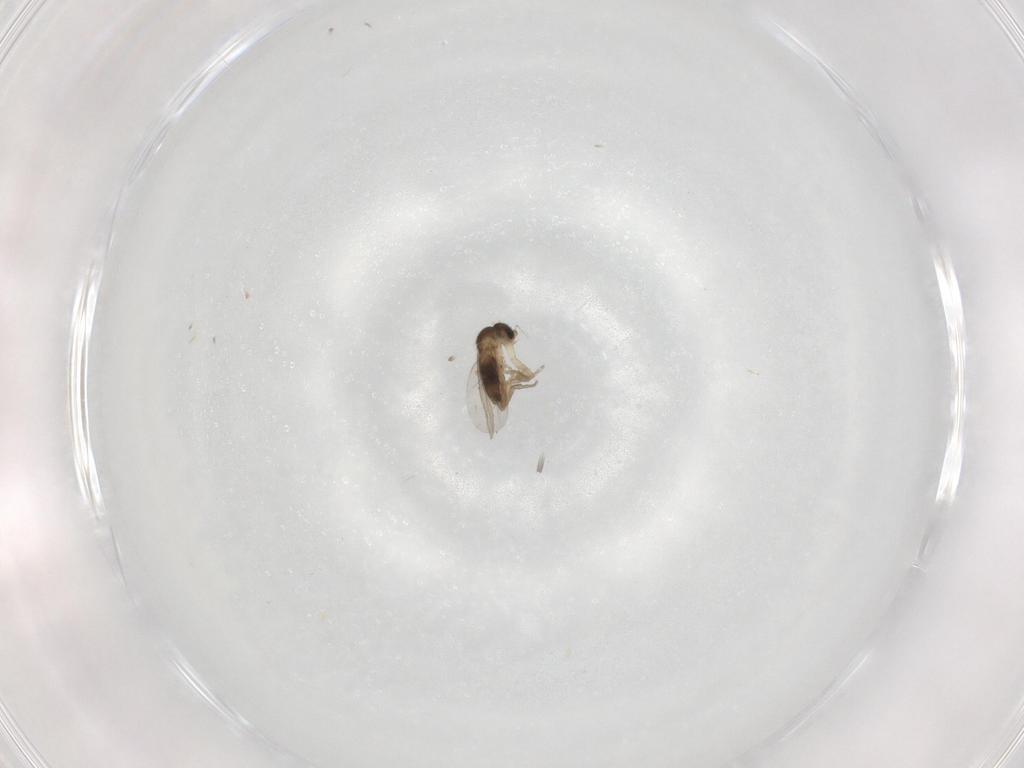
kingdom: Animalia
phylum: Arthropoda
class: Insecta
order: Diptera
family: Phoridae
